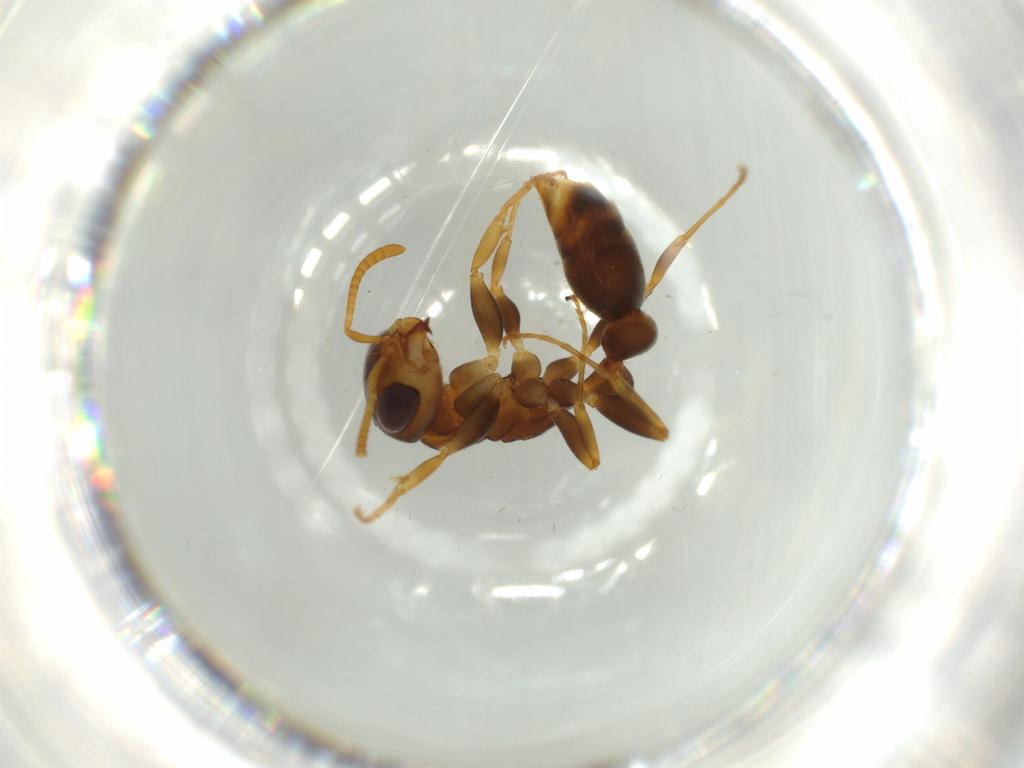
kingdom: Animalia
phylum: Arthropoda
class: Insecta
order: Hymenoptera
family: Formicidae
